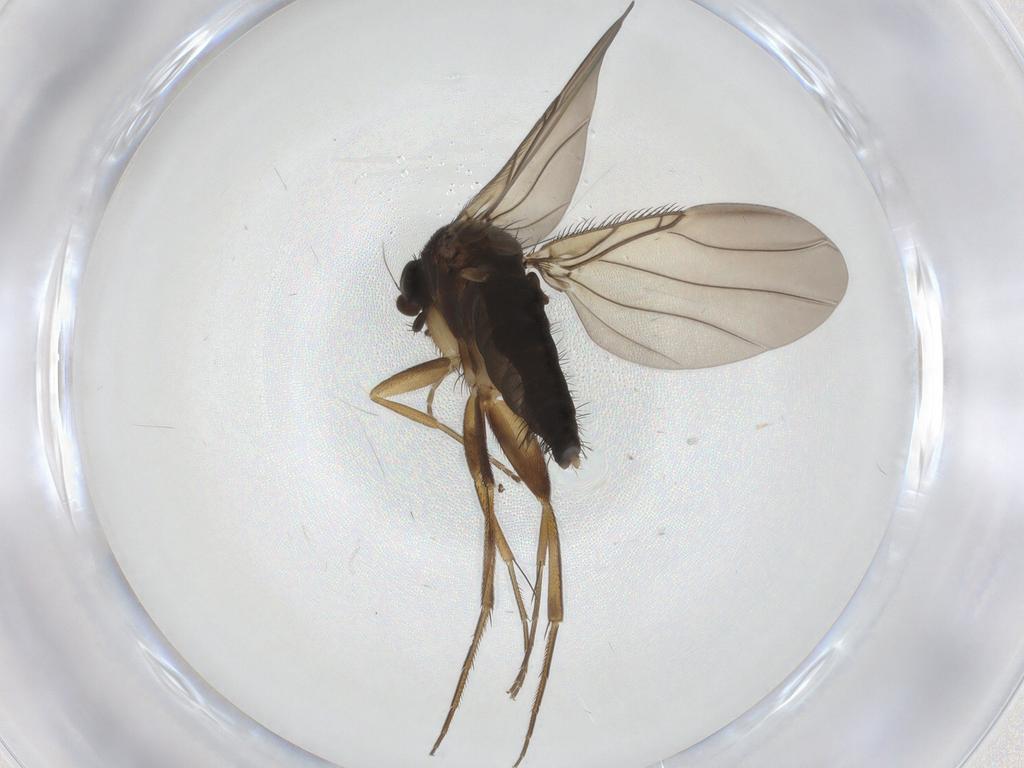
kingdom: Animalia
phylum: Arthropoda
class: Insecta
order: Diptera
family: Phoridae
